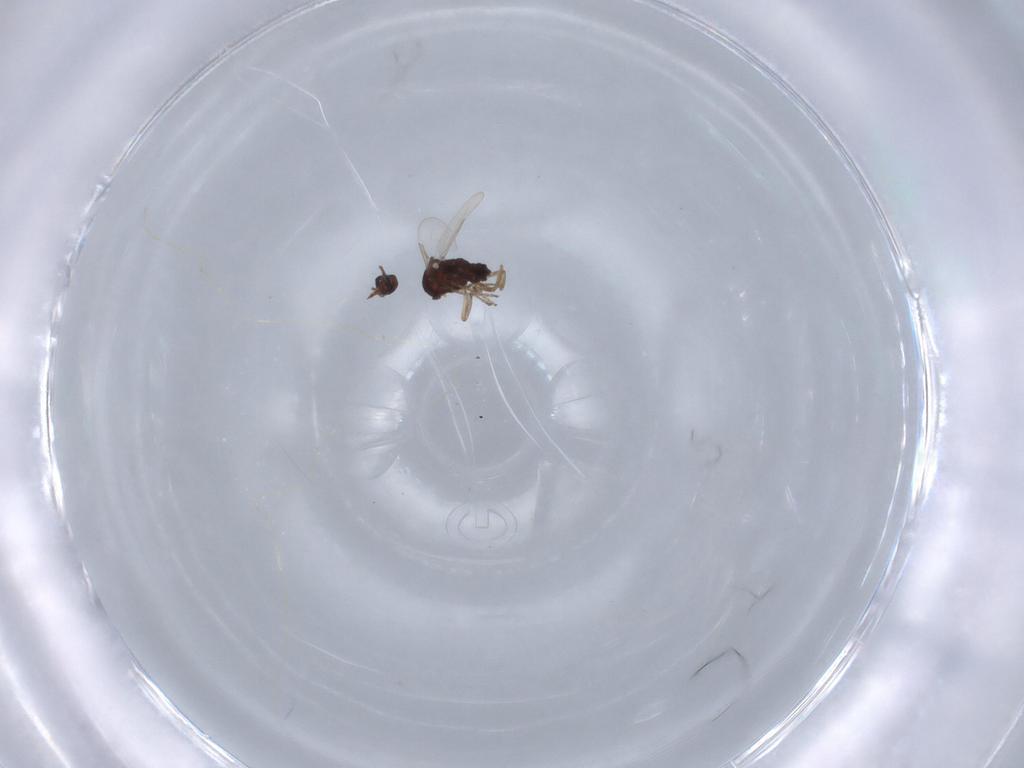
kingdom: Animalia
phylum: Arthropoda
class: Insecta
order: Diptera
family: Ceratopogonidae
